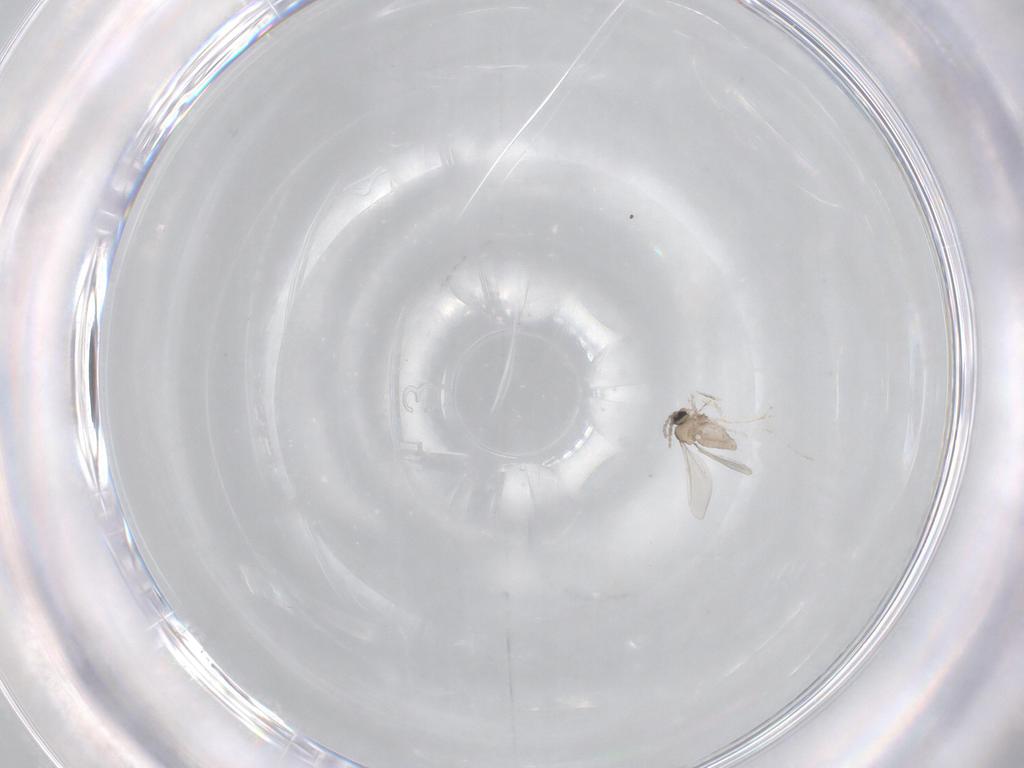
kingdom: Animalia
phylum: Arthropoda
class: Insecta
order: Diptera
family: Cecidomyiidae
